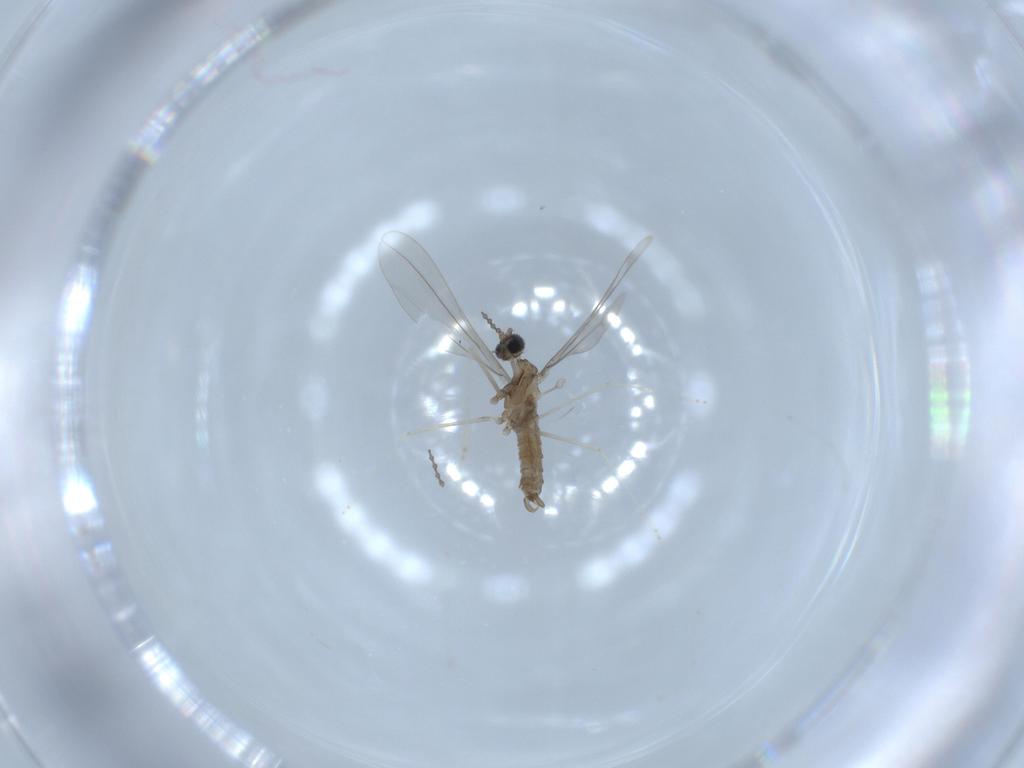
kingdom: Animalia
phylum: Arthropoda
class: Insecta
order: Diptera
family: Cecidomyiidae
